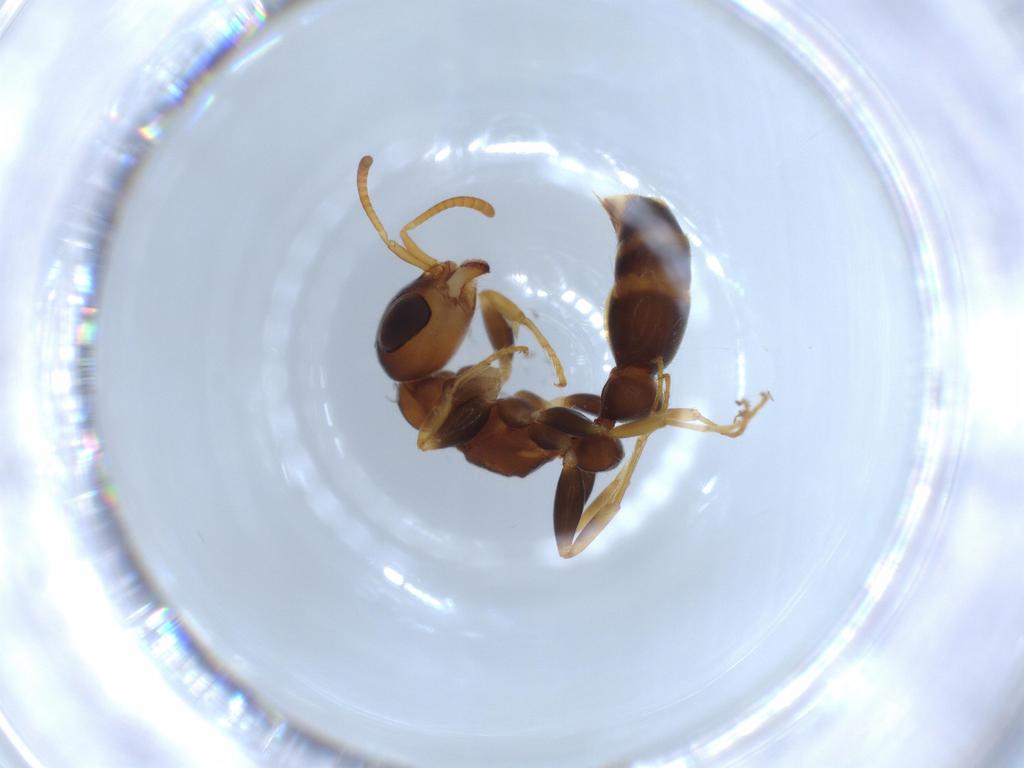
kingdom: Animalia
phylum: Arthropoda
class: Insecta
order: Hymenoptera
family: Formicidae
